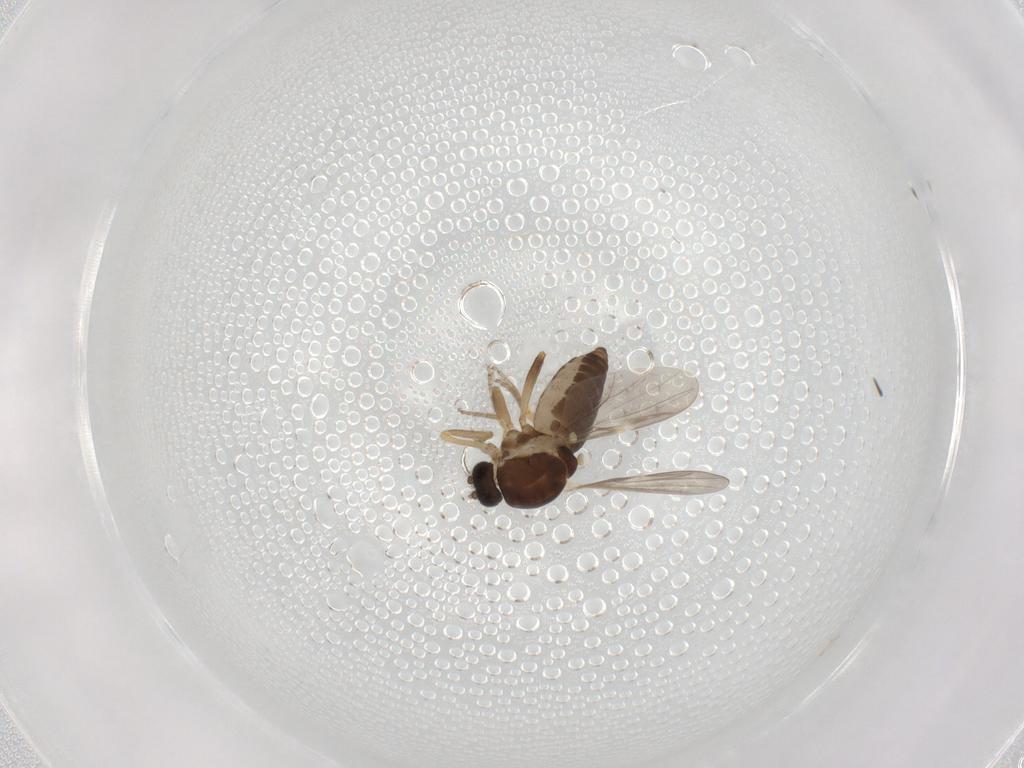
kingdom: Animalia
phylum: Arthropoda
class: Insecta
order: Diptera
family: Ceratopogonidae
